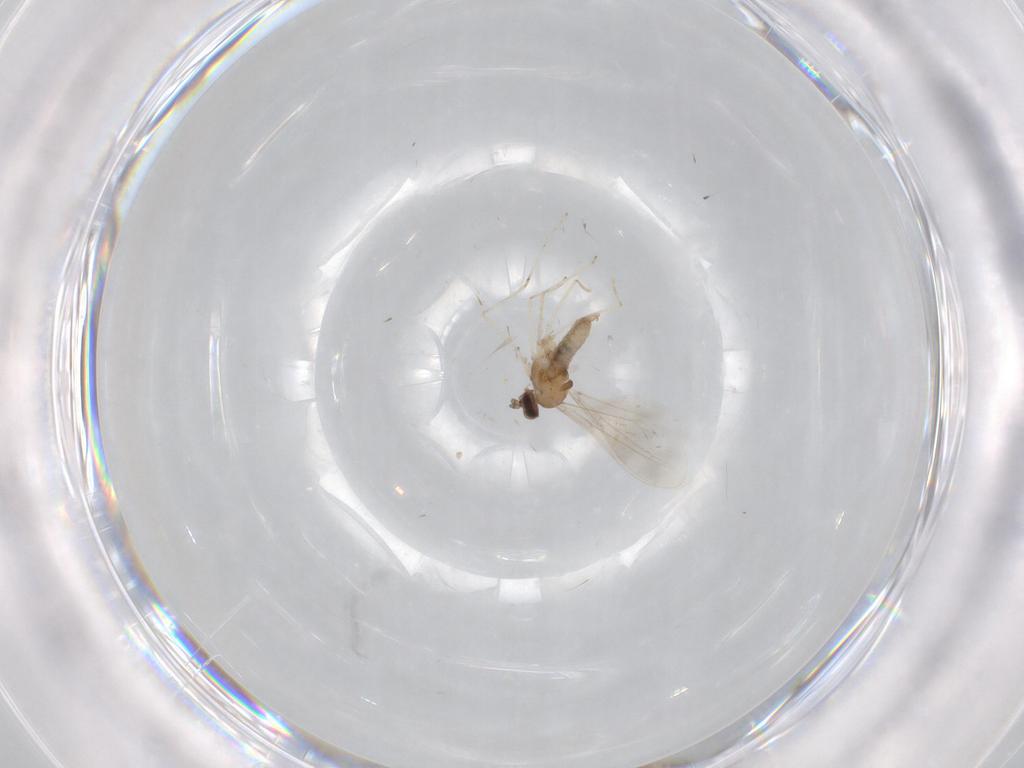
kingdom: Animalia
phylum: Arthropoda
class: Insecta
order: Diptera
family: Cecidomyiidae
